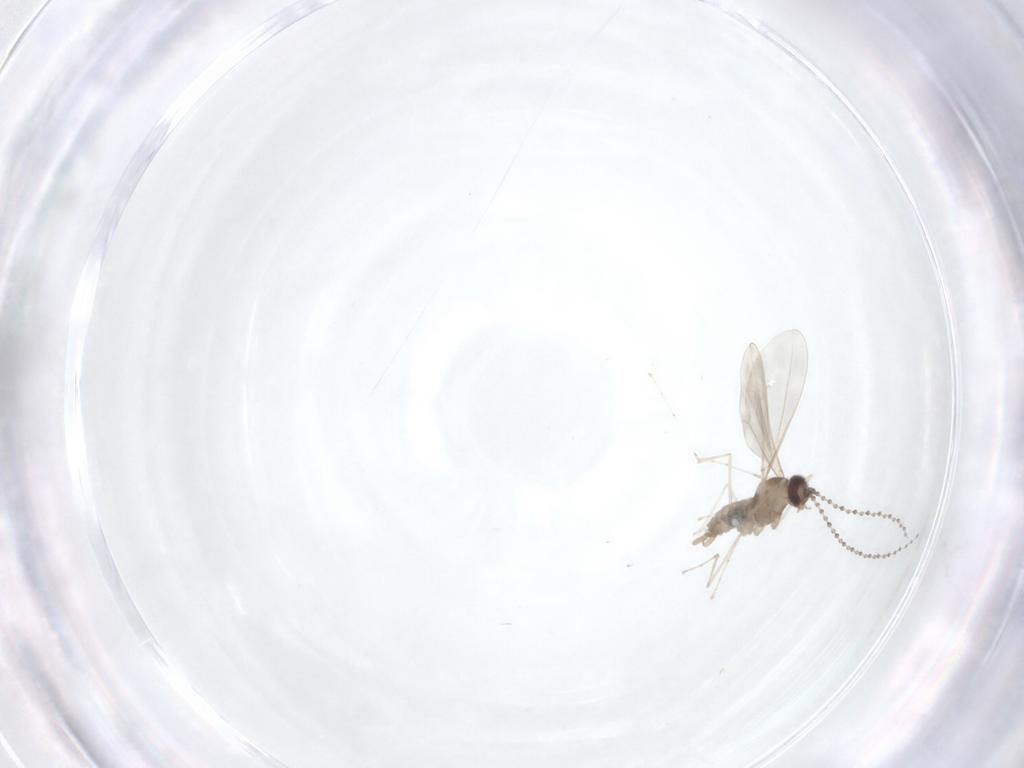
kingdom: Animalia
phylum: Arthropoda
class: Insecta
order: Diptera
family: Cecidomyiidae
